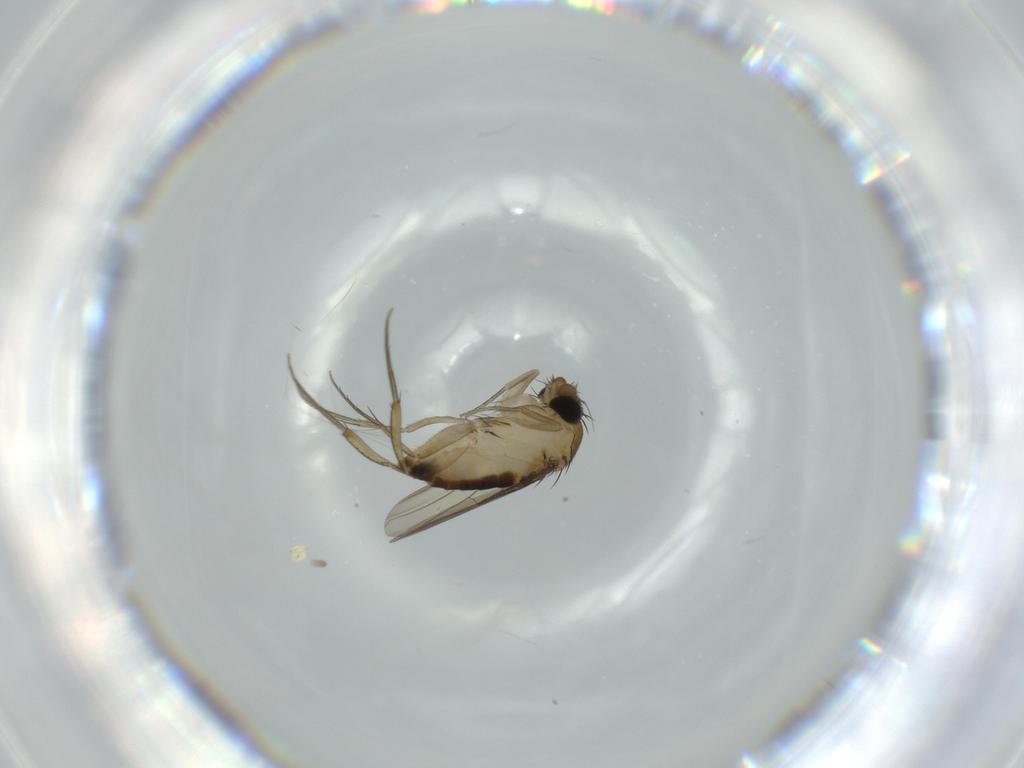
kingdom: Animalia
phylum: Arthropoda
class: Insecta
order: Diptera
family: Phoridae
